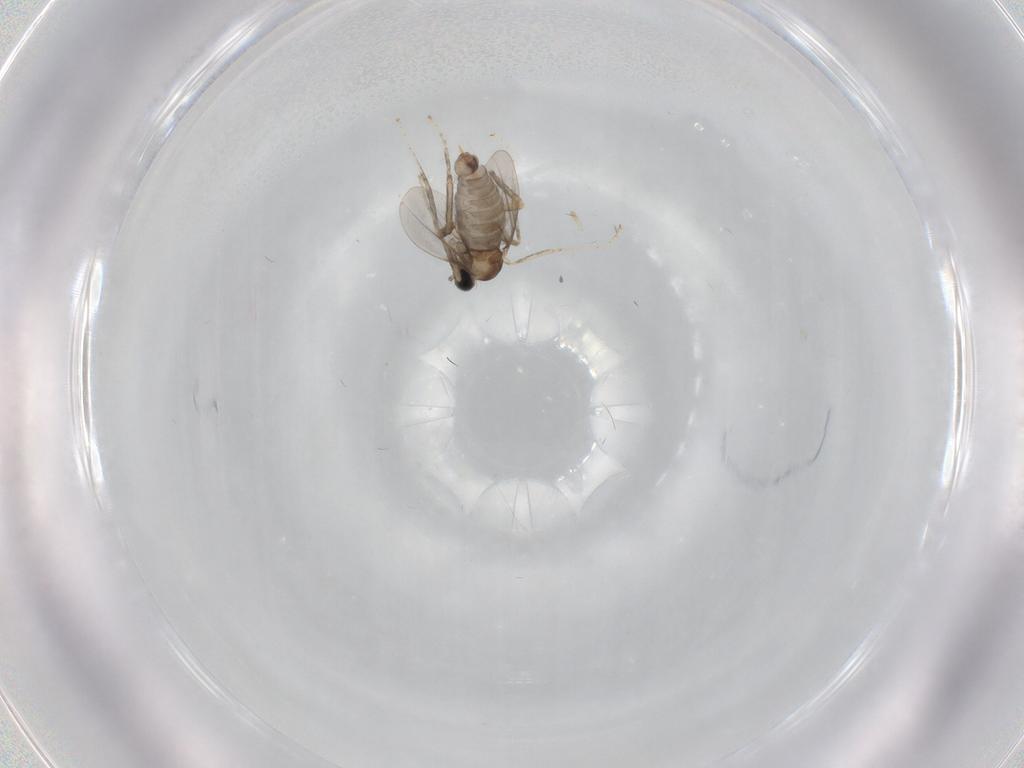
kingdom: Animalia
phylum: Arthropoda
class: Insecta
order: Diptera
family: Cecidomyiidae
